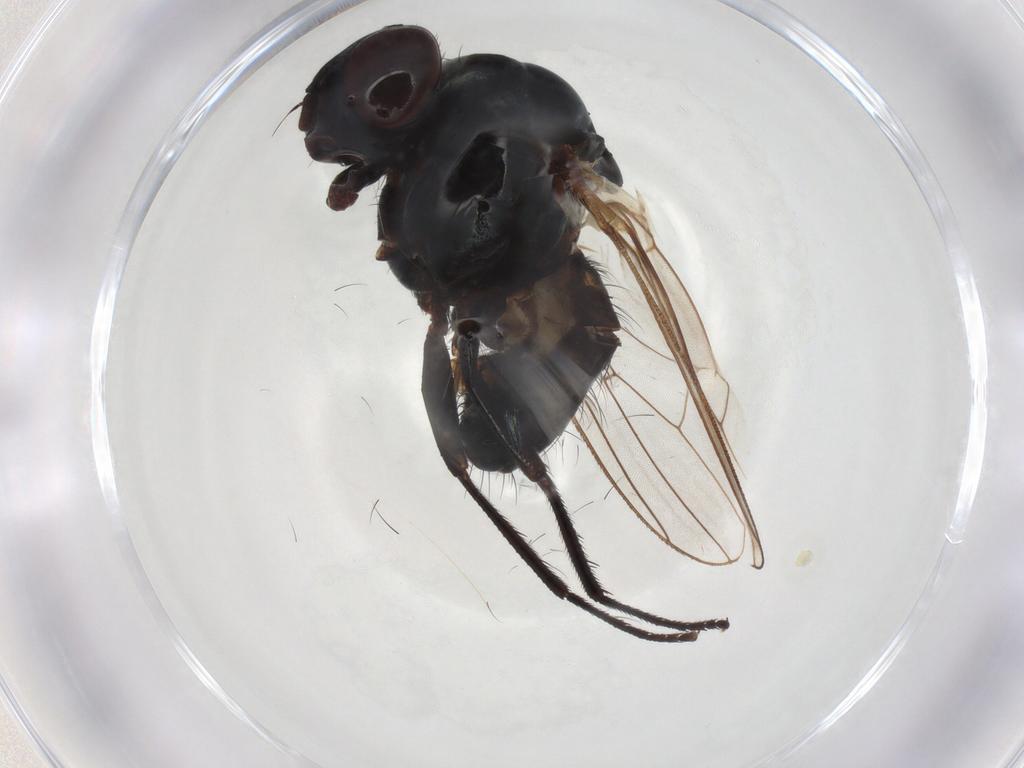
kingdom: Animalia
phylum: Arthropoda
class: Insecta
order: Diptera
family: Anthomyiidae
